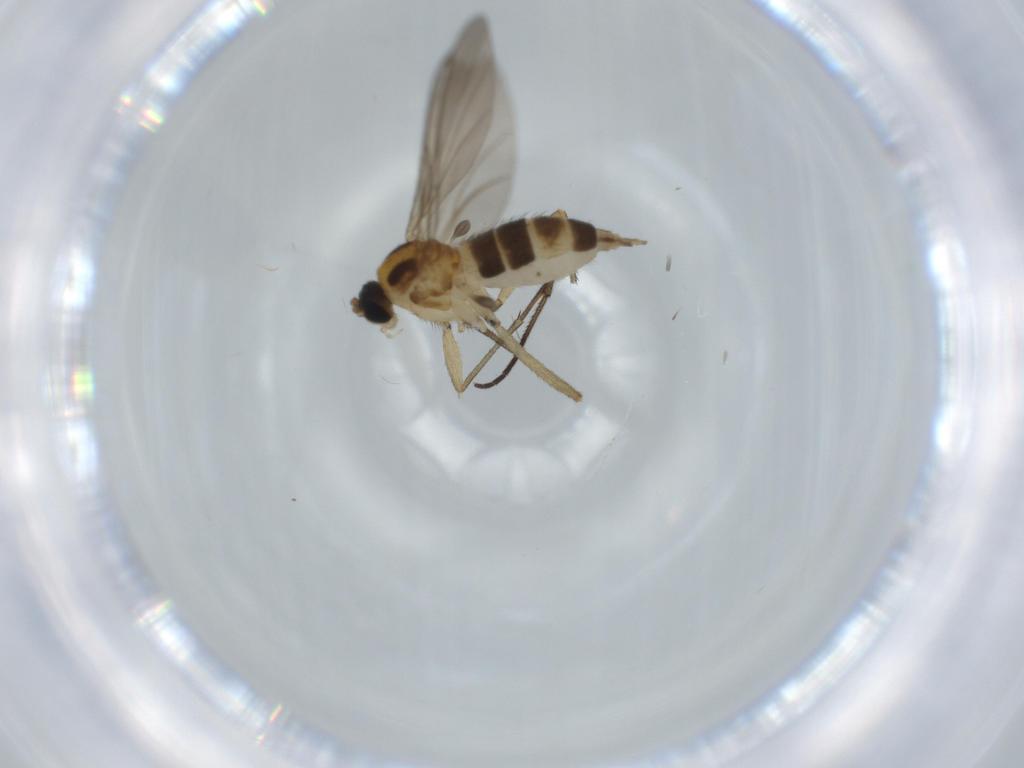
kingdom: Animalia
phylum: Arthropoda
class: Insecta
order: Diptera
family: Sciaridae
